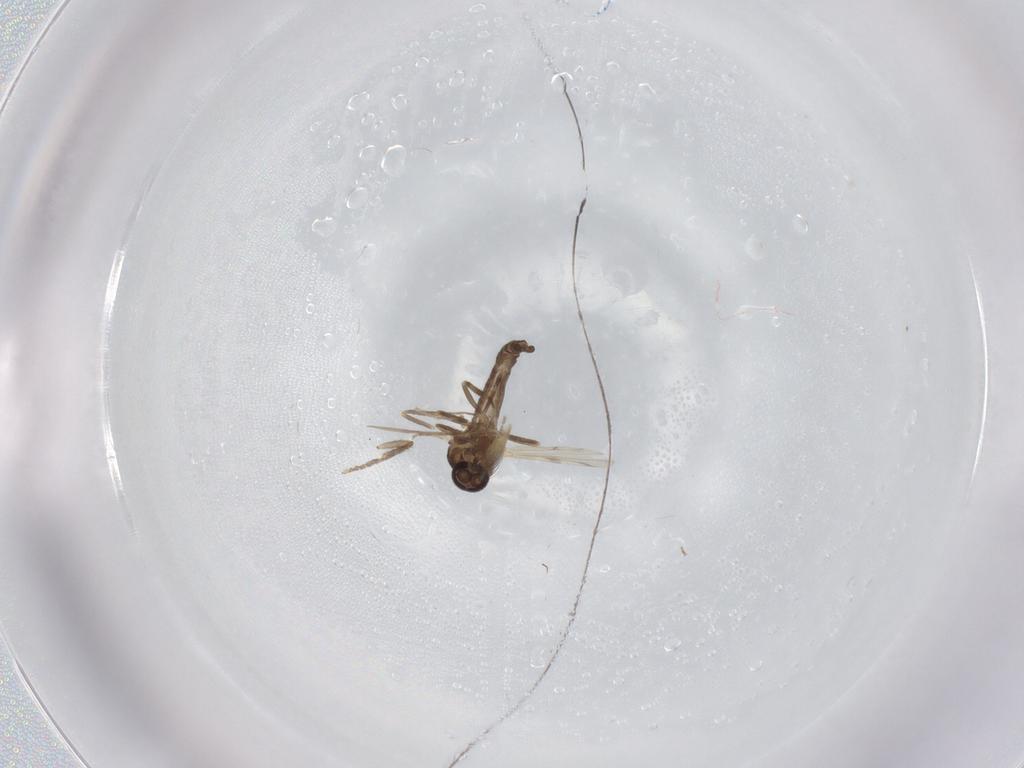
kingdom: Animalia
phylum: Arthropoda
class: Insecta
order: Diptera
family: Ceratopogonidae
